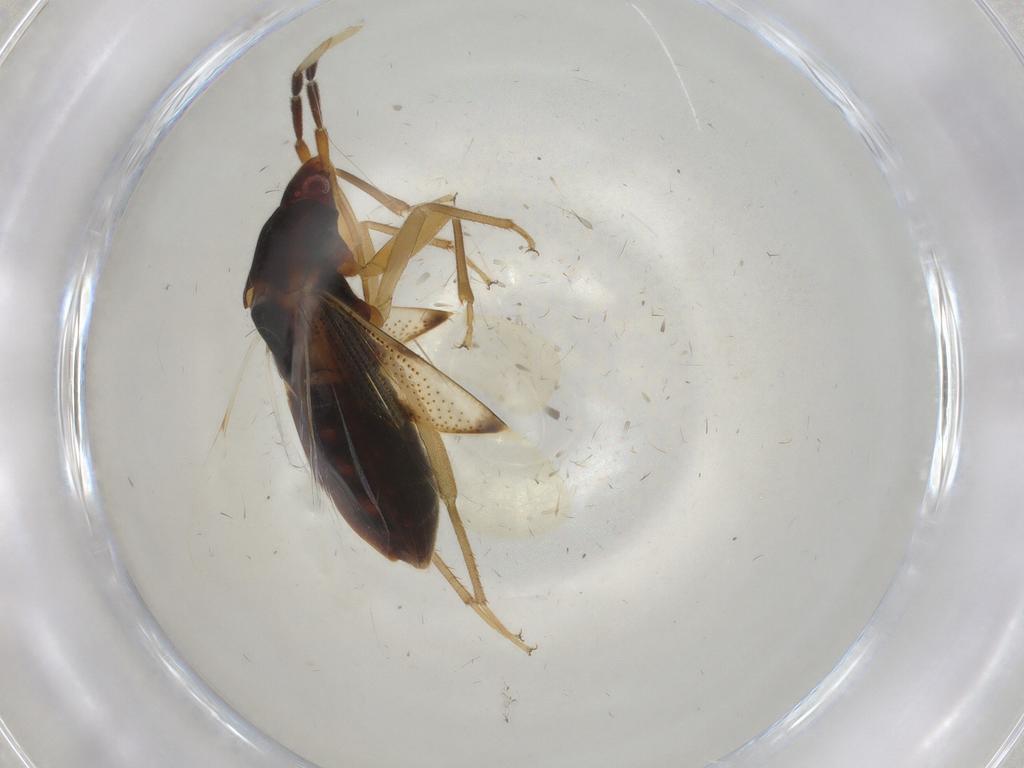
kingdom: Animalia
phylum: Arthropoda
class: Insecta
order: Hemiptera
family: Rhyparochromidae
